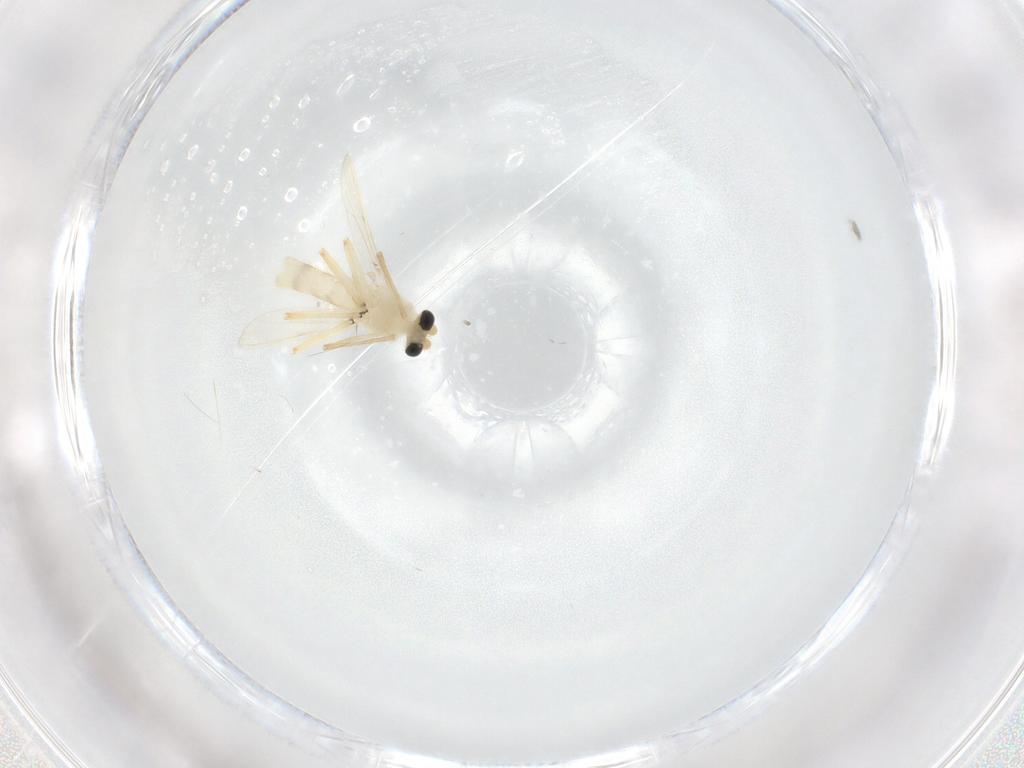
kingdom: Animalia
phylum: Arthropoda
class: Insecta
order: Diptera
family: Chironomidae
